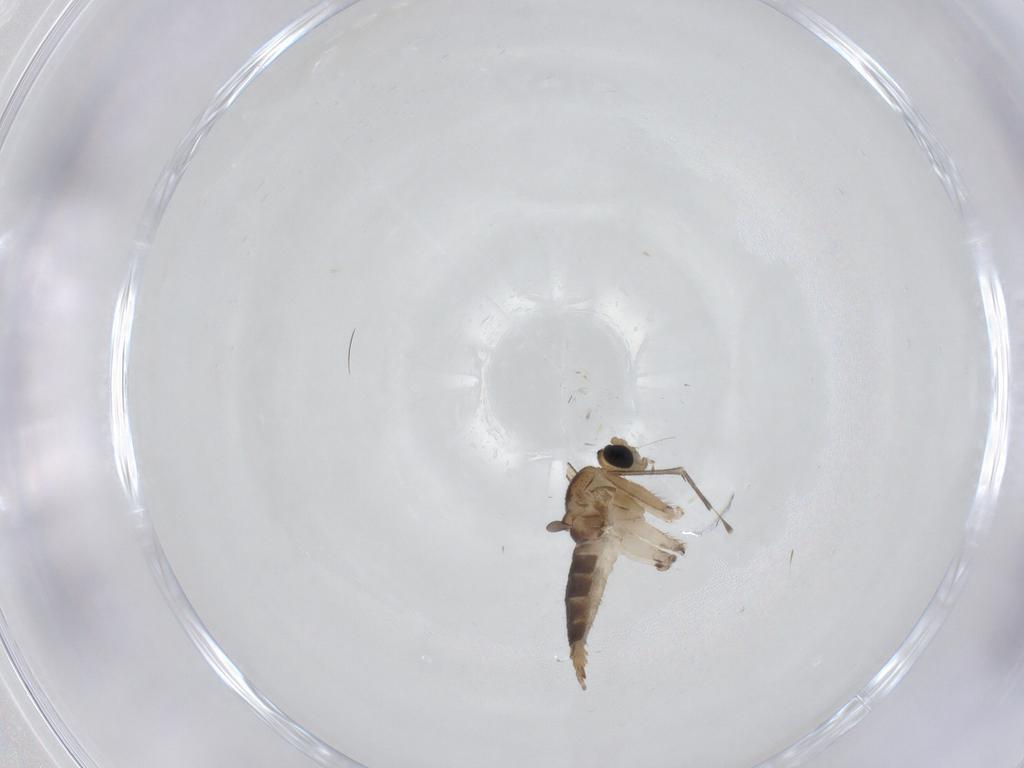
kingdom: Animalia
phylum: Arthropoda
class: Insecta
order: Diptera
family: Sciaridae
